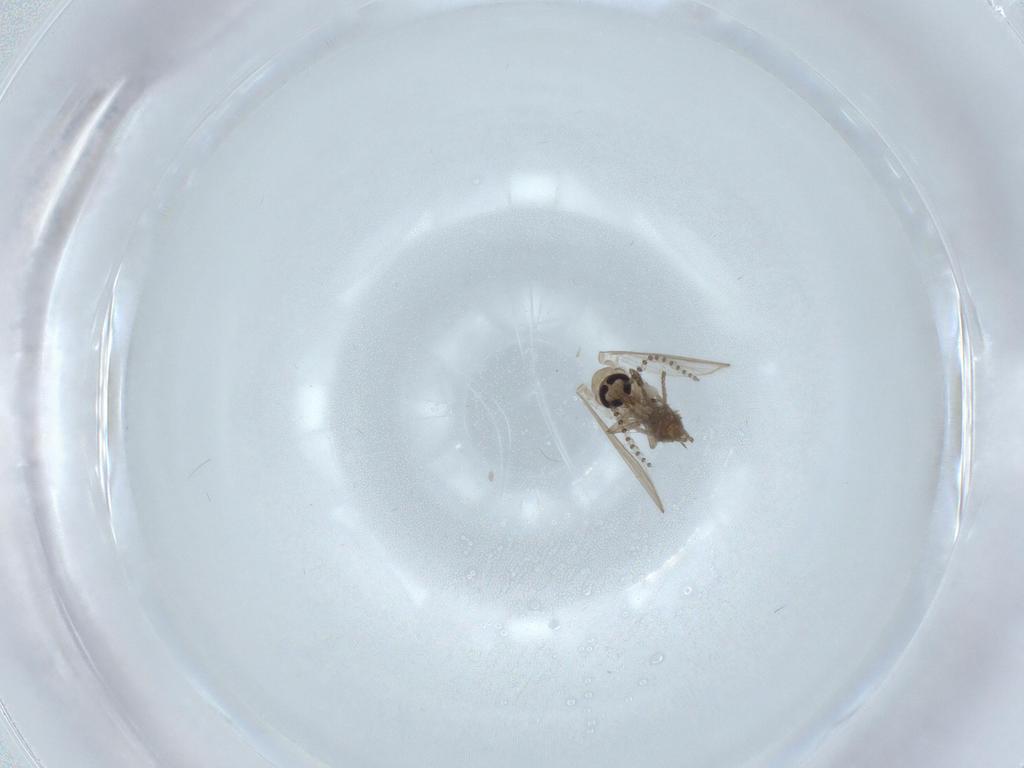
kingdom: Animalia
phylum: Arthropoda
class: Insecta
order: Diptera
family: Psychodidae
